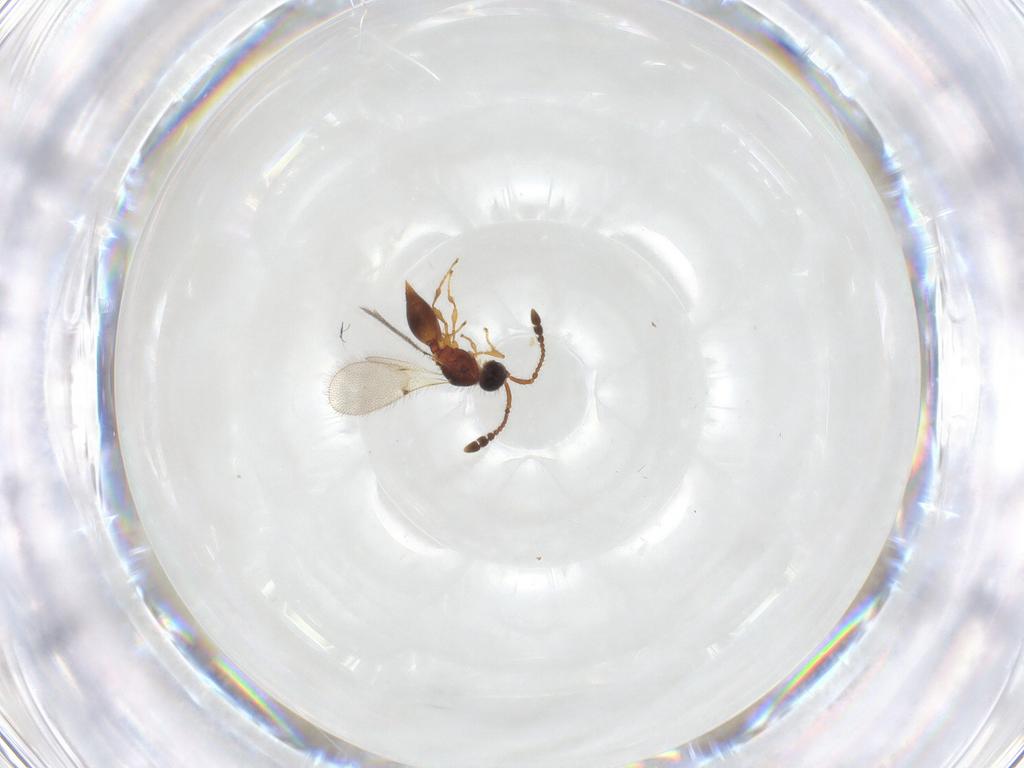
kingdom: Animalia
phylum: Arthropoda
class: Insecta
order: Hymenoptera
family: Diapriidae
